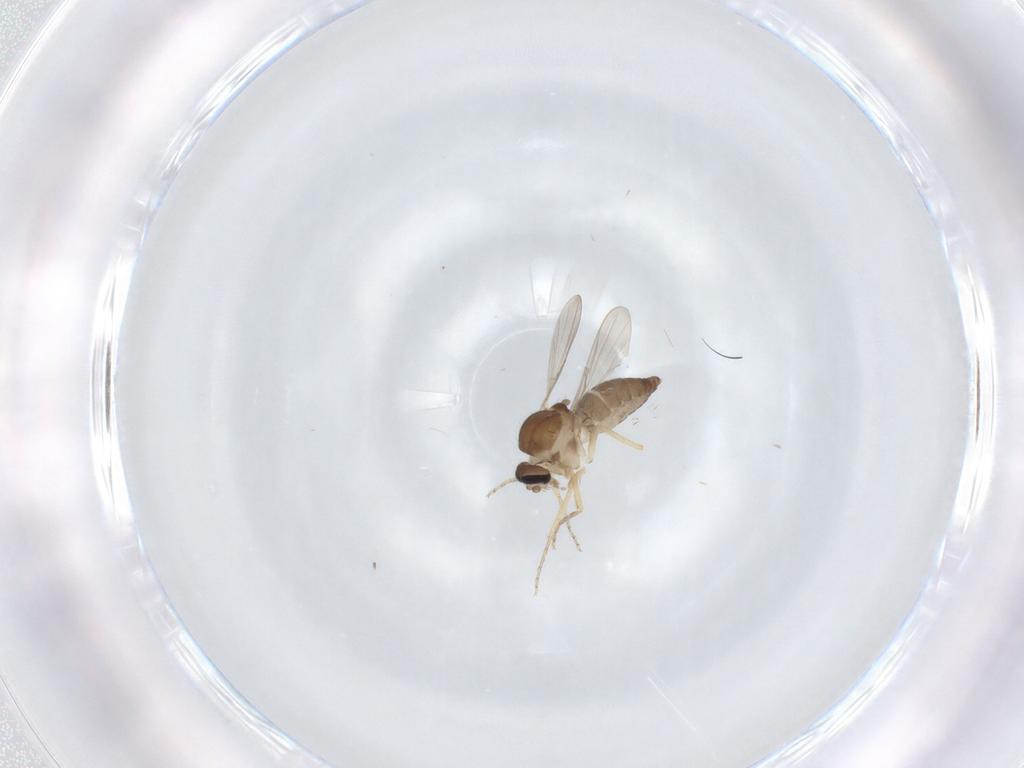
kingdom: Animalia
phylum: Arthropoda
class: Insecta
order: Diptera
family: Ceratopogonidae
